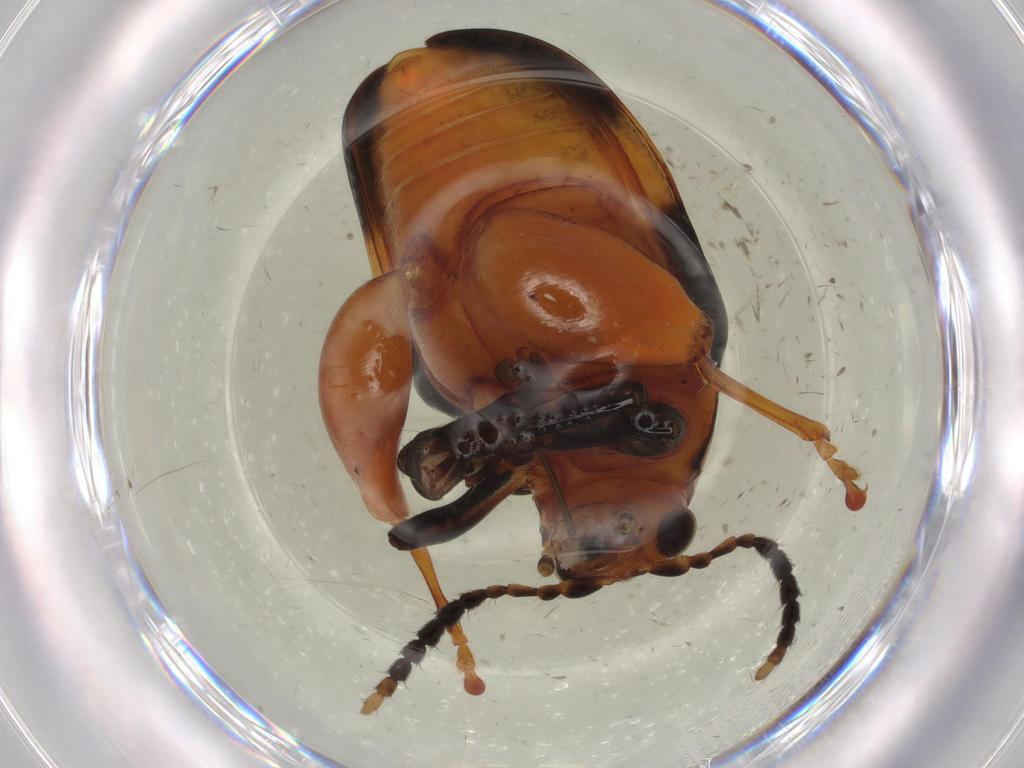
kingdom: Animalia
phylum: Arthropoda
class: Insecta
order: Coleoptera
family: Chrysomelidae
